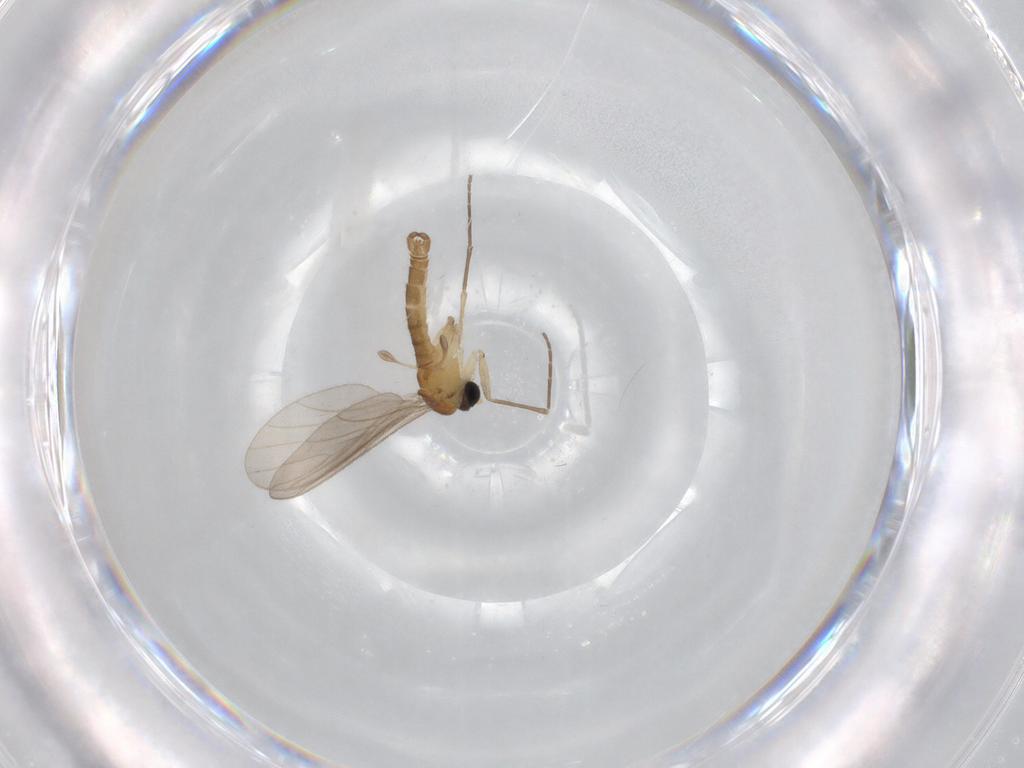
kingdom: Animalia
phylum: Arthropoda
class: Insecta
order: Diptera
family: Sciaridae
